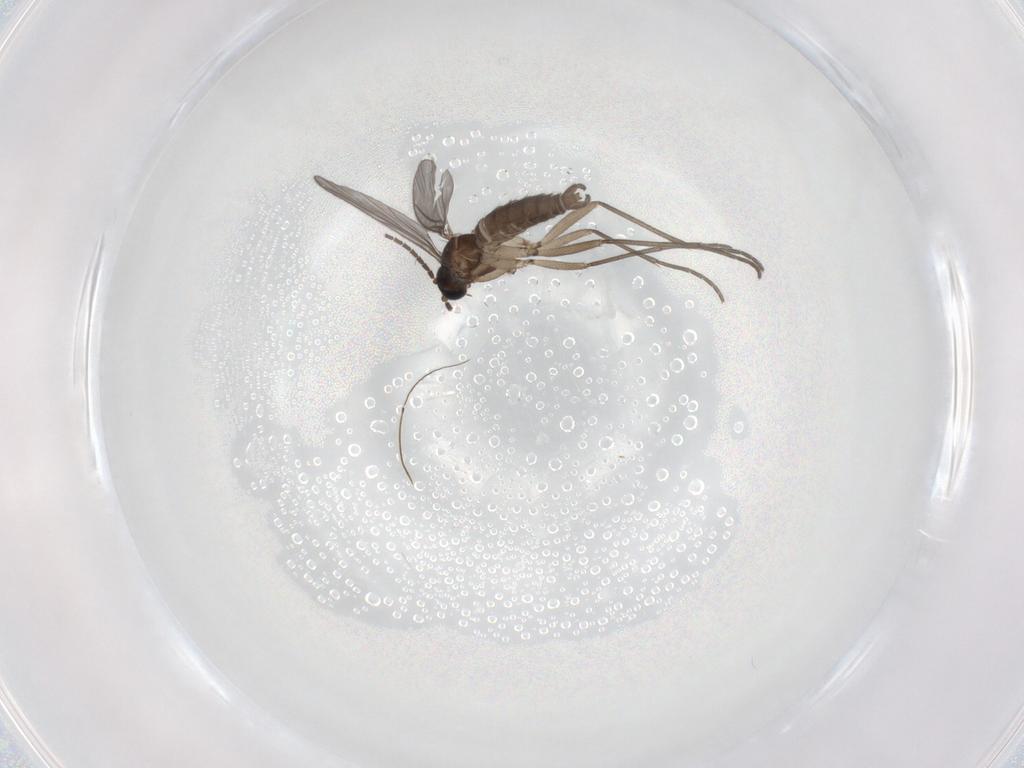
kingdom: Animalia
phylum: Arthropoda
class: Insecta
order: Diptera
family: Sciaridae
